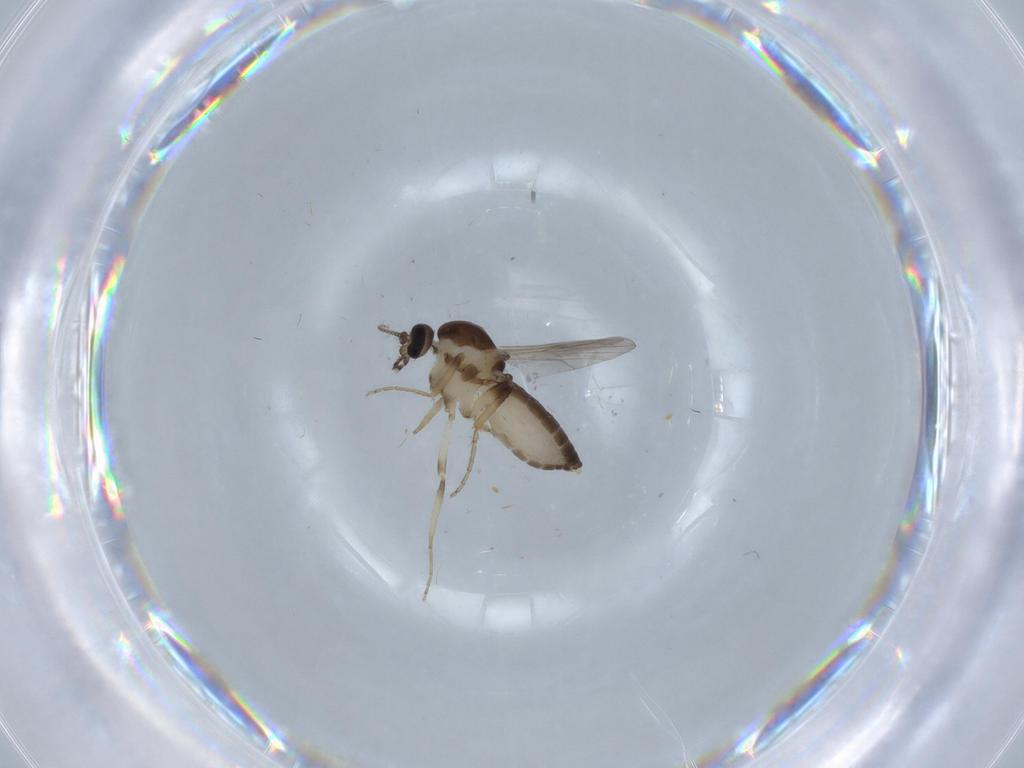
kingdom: Animalia
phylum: Arthropoda
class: Insecta
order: Diptera
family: Ceratopogonidae
